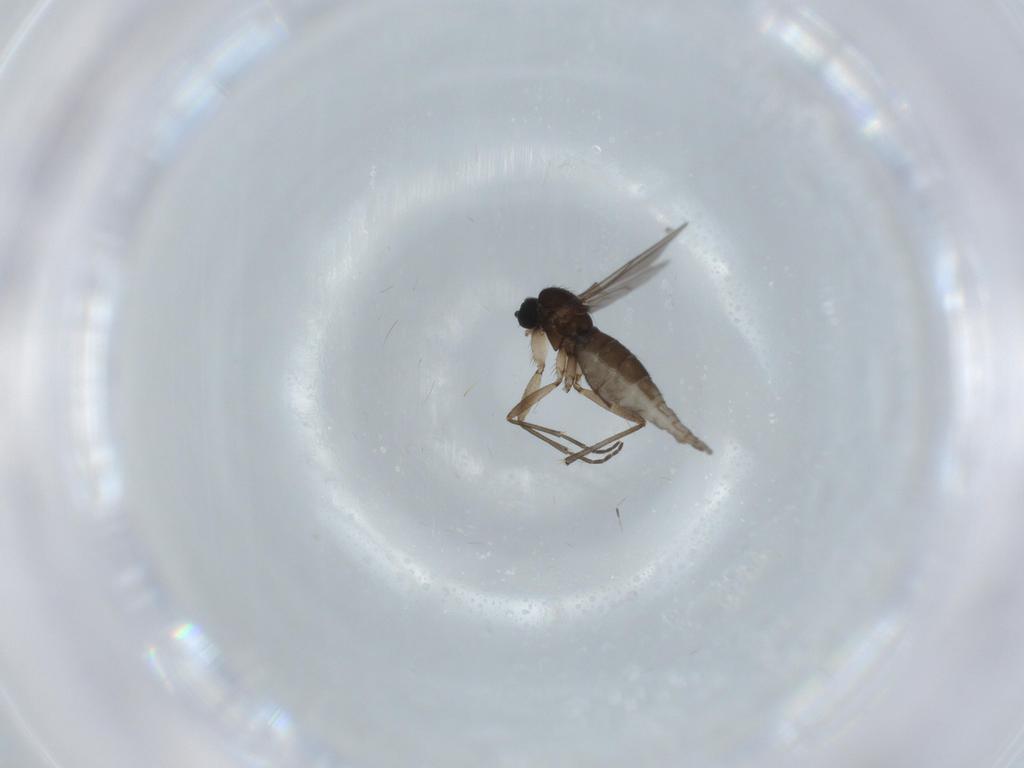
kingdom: Animalia
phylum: Arthropoda
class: Insecta
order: Diptera
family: Sciaridae
